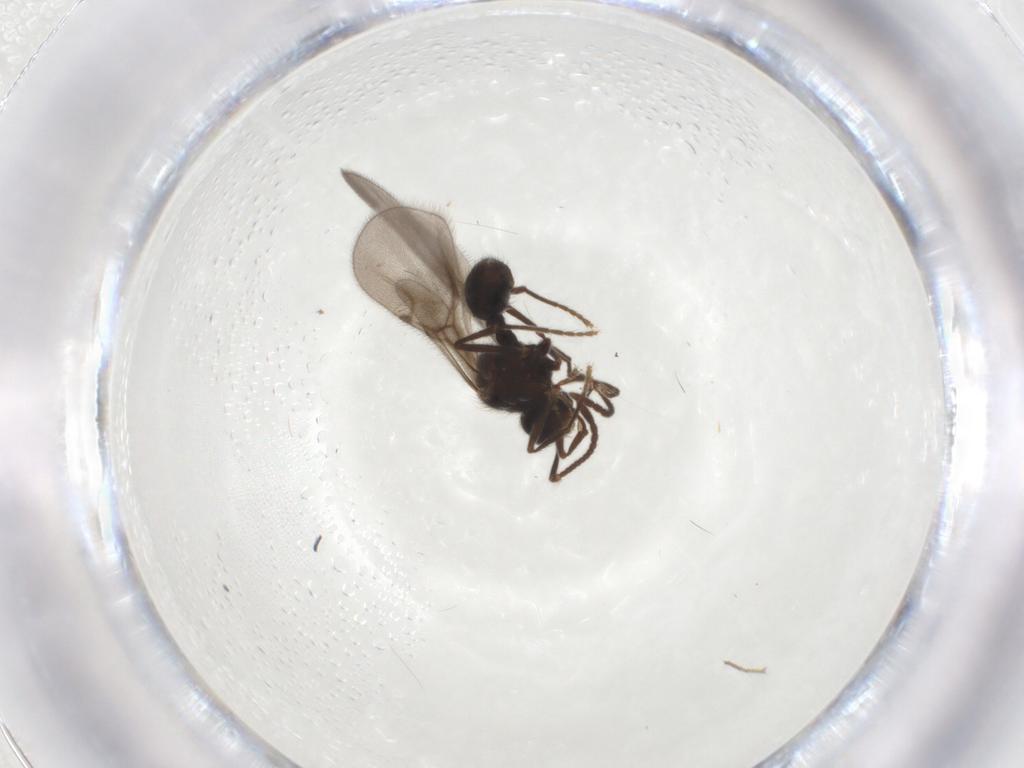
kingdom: Animalia
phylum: Arthropoda
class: Insecta
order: Hymenoptera
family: Formicidae
